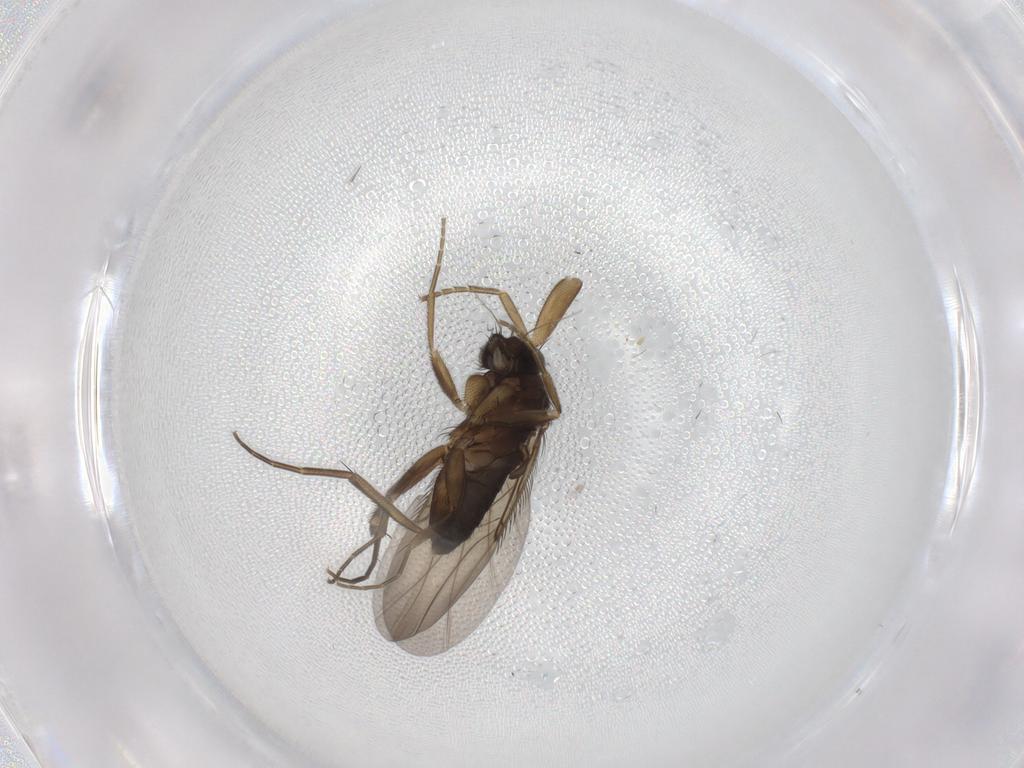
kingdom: Animalia
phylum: Arthropoda
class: Insecta
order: Diptera
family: Phoridae
